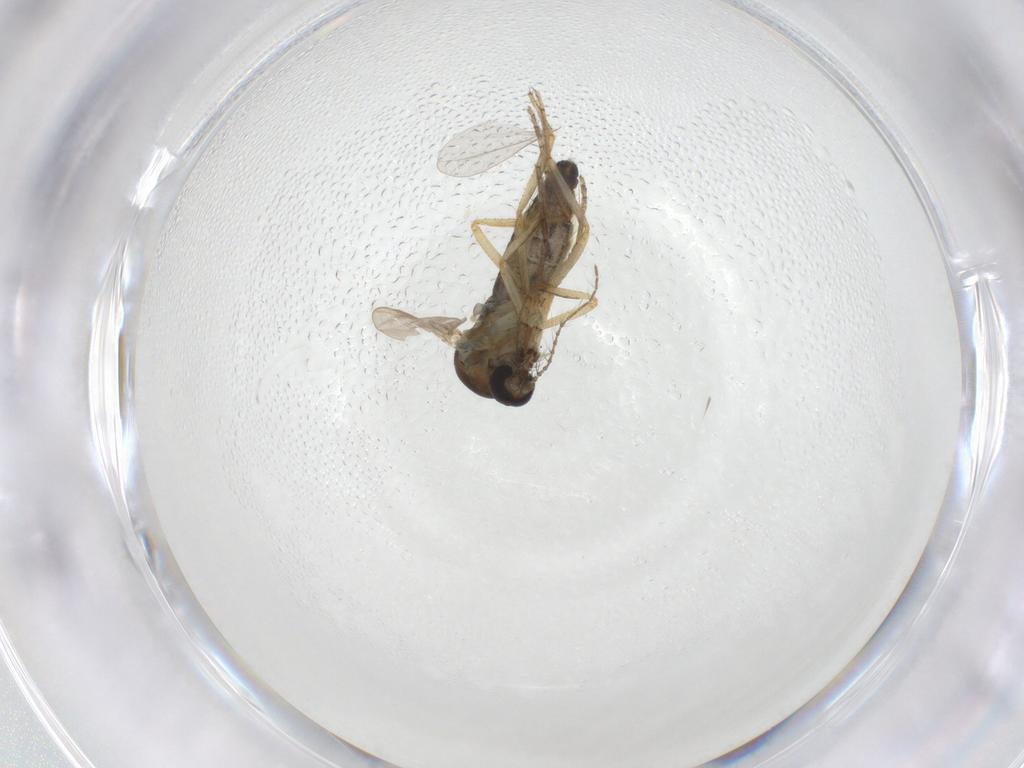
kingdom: Animalia
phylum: Arthropoda
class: Insecta
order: Diptera
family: Ceratopogonidae
